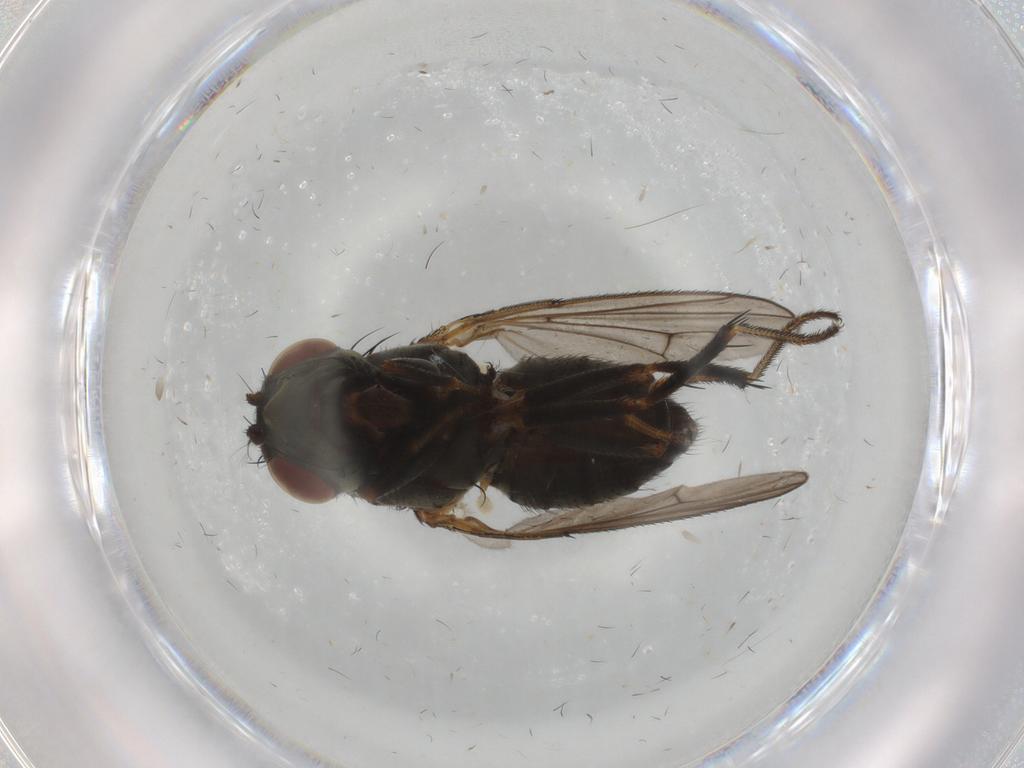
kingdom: Animalia
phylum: Arthropoda
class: Insecta
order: Diptera
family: Ephydridae
